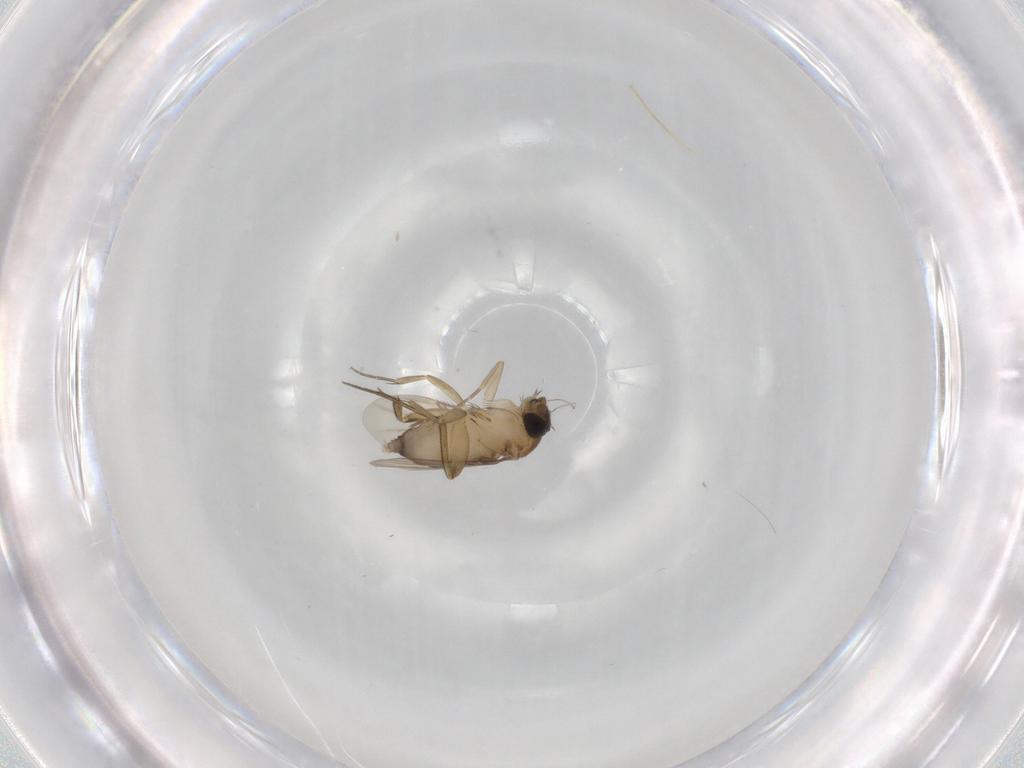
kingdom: Animalia
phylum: Arthropoda
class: Insecta
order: Diptera
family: Phoridae
